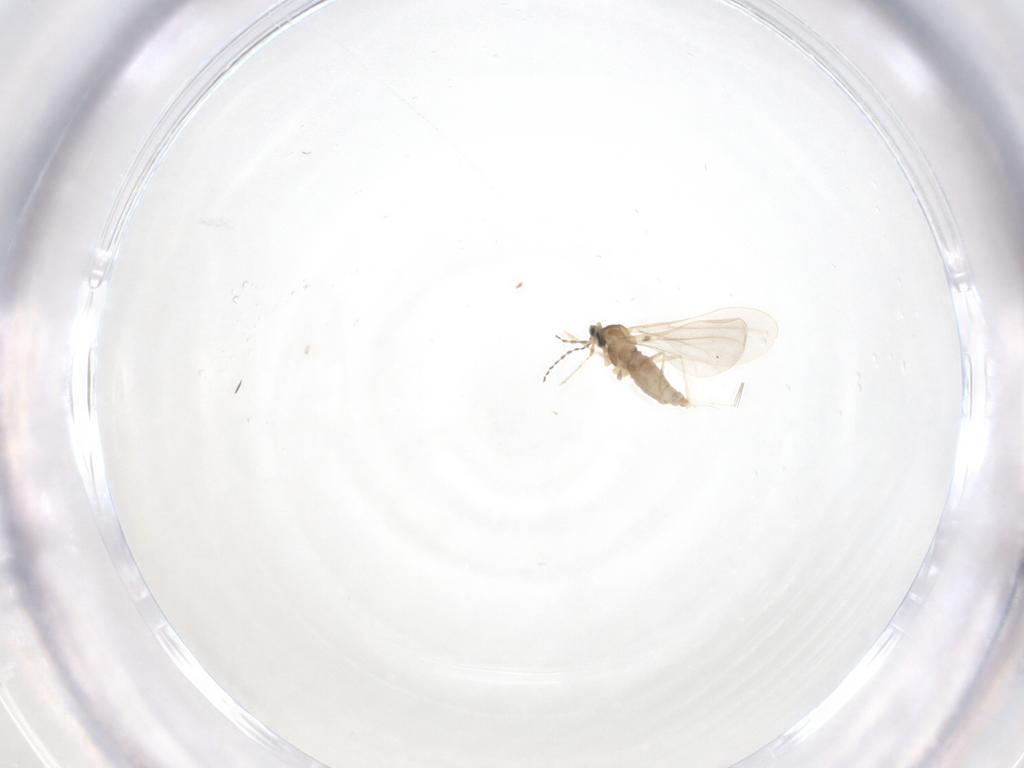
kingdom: Animalia
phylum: Arthropoda
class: Insecta
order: Diptera
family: Cecidomyiidae
